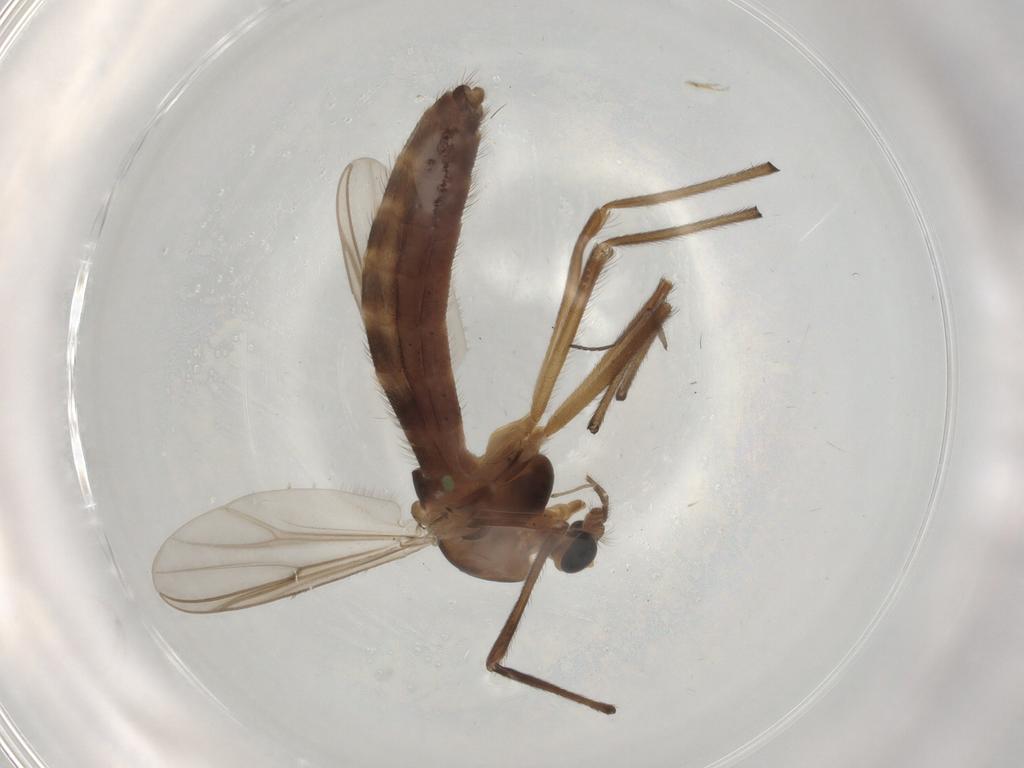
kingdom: Animalia
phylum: Arthropoda
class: Insecta
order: Diptera
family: Chironomidae
